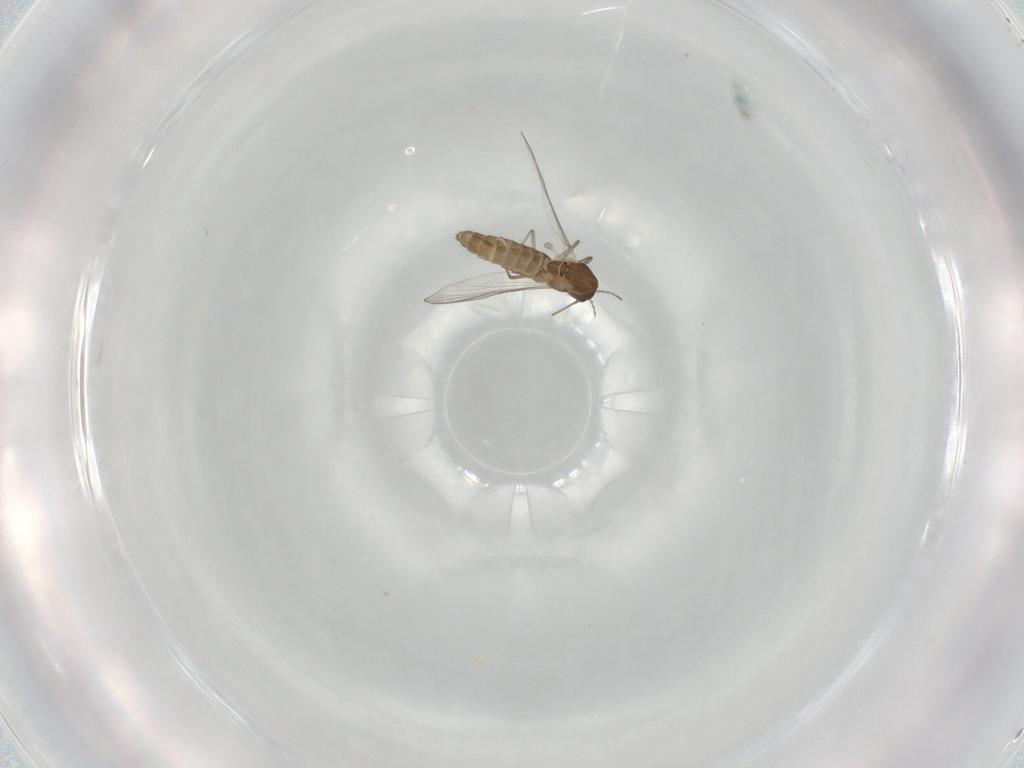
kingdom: Animalia
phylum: Arthropoda
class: Insecta
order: Diptera
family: Chironomidae
